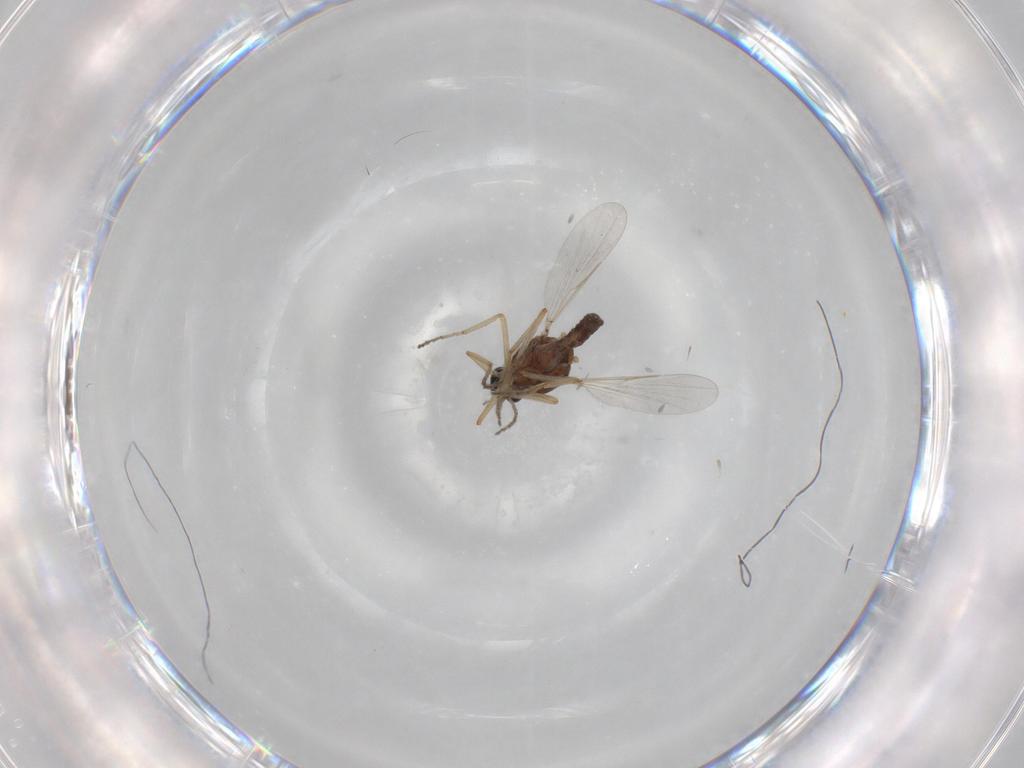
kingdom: Animalia
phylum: Arthropoda
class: Insecta
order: Diptera
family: Ceratopogonidae
